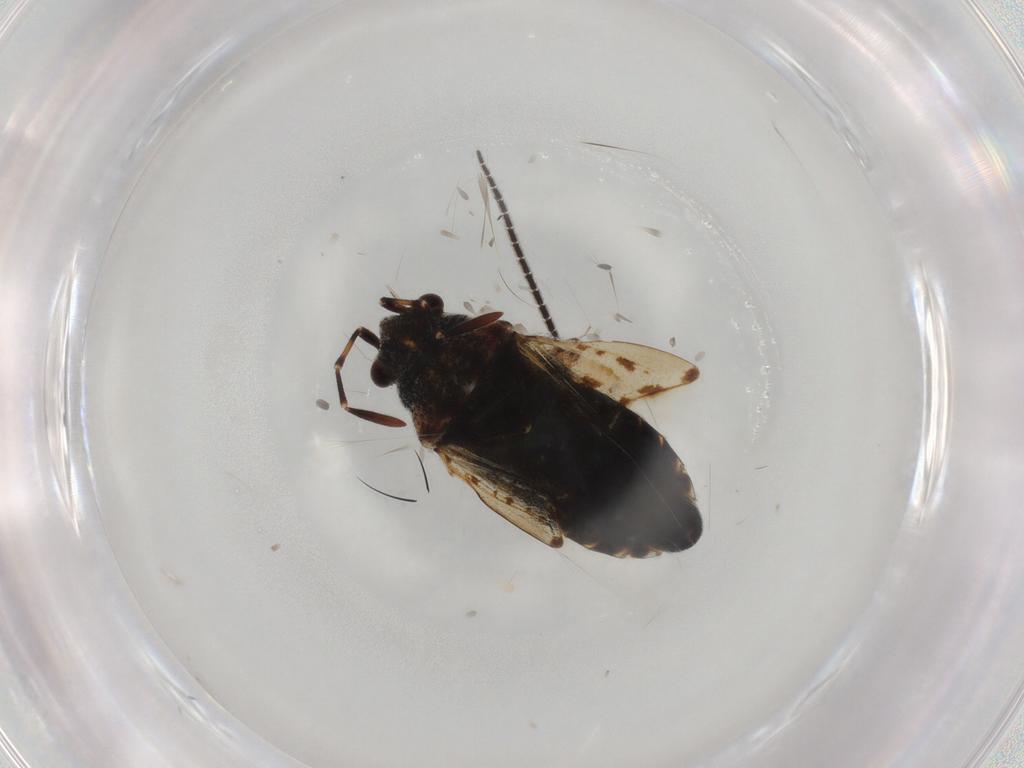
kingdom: Animalia
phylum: Arthropoda
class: Insecta
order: Hemiptera
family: Lygaeidae
